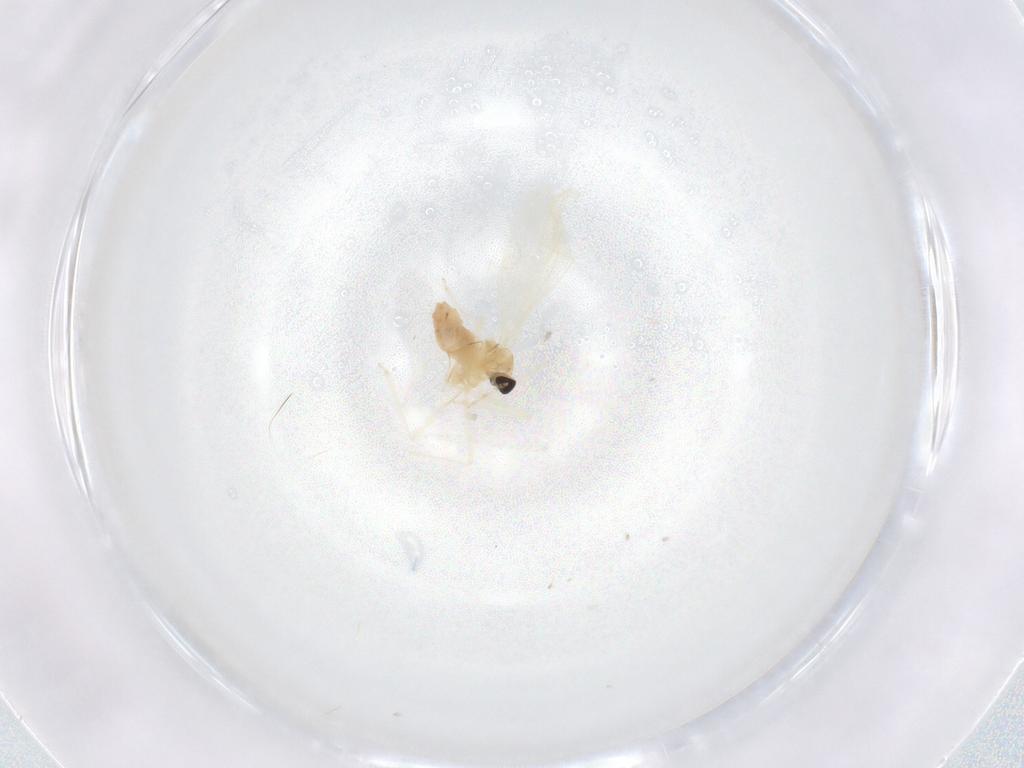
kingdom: Animalia
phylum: Arthropoda
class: Insecta
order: Diptera
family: Cecidomyiidae
